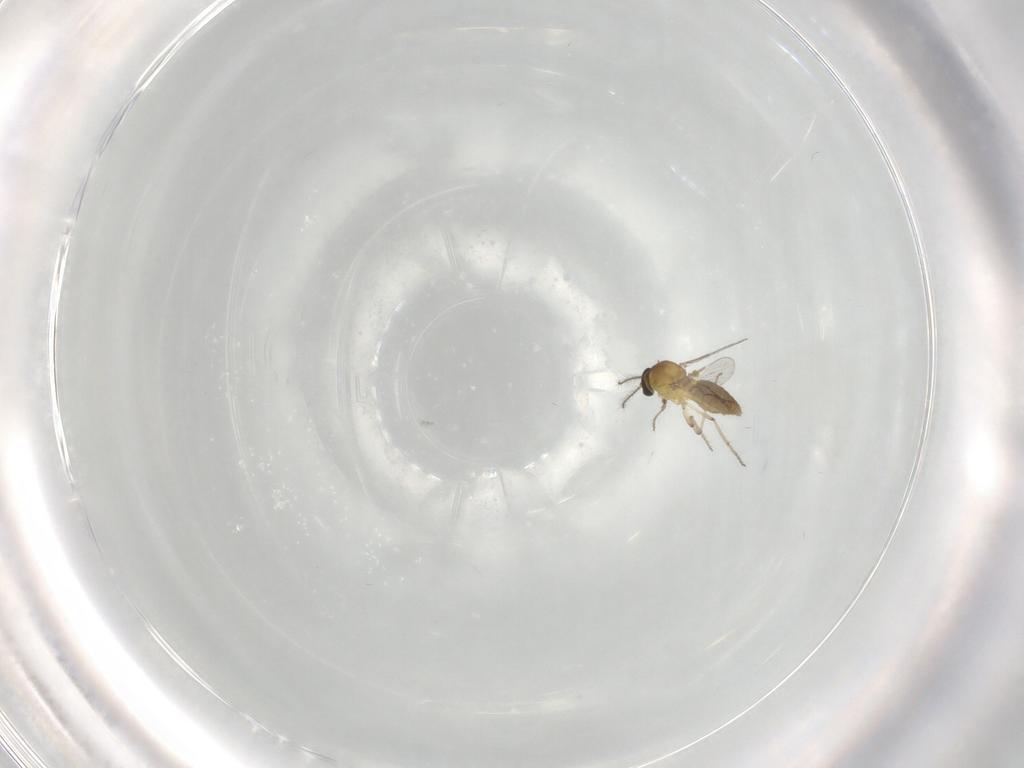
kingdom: Animalia
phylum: Arthropoda
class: Insecta
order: Diptera
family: Ceratopogonidae
